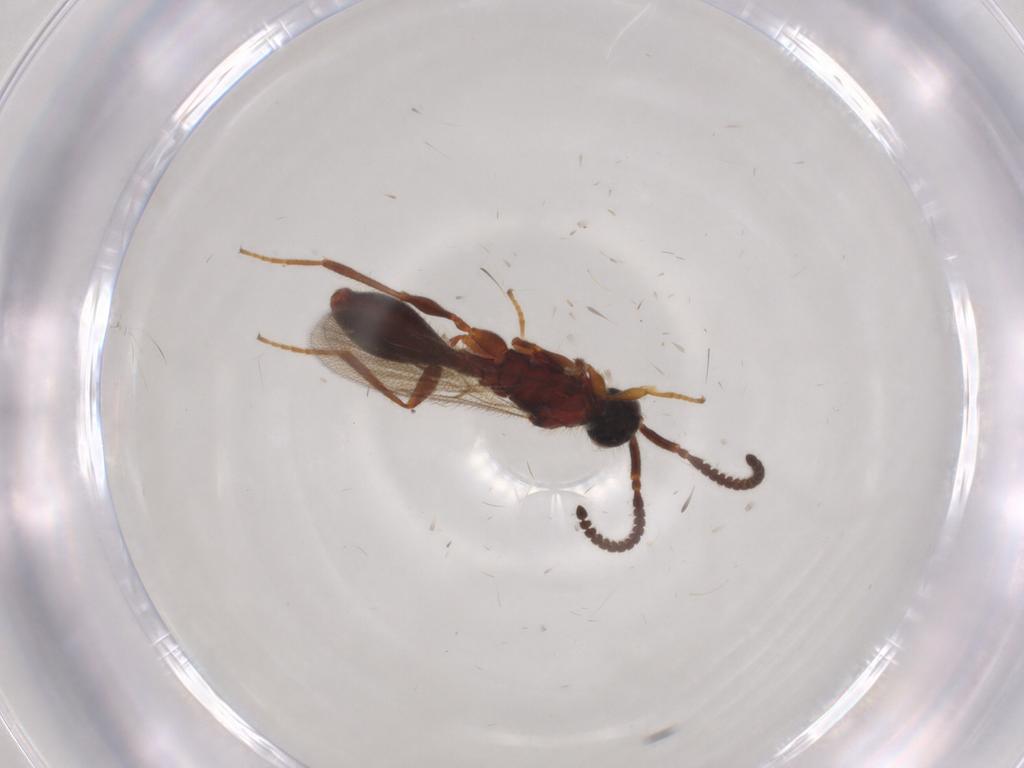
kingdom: Animalia
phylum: Arthropoda
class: Insecta
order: Hymenoptera
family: Diapriidae
